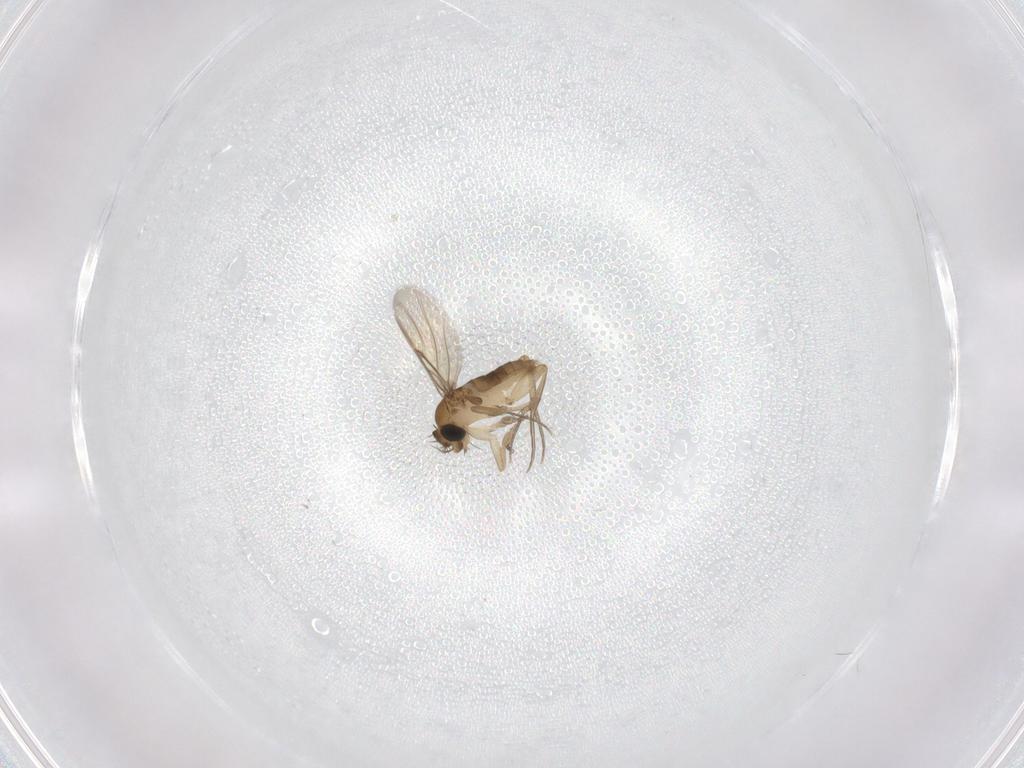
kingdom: Animalia
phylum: Arthropoda
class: Insecta
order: Diptera
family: Phoridae
